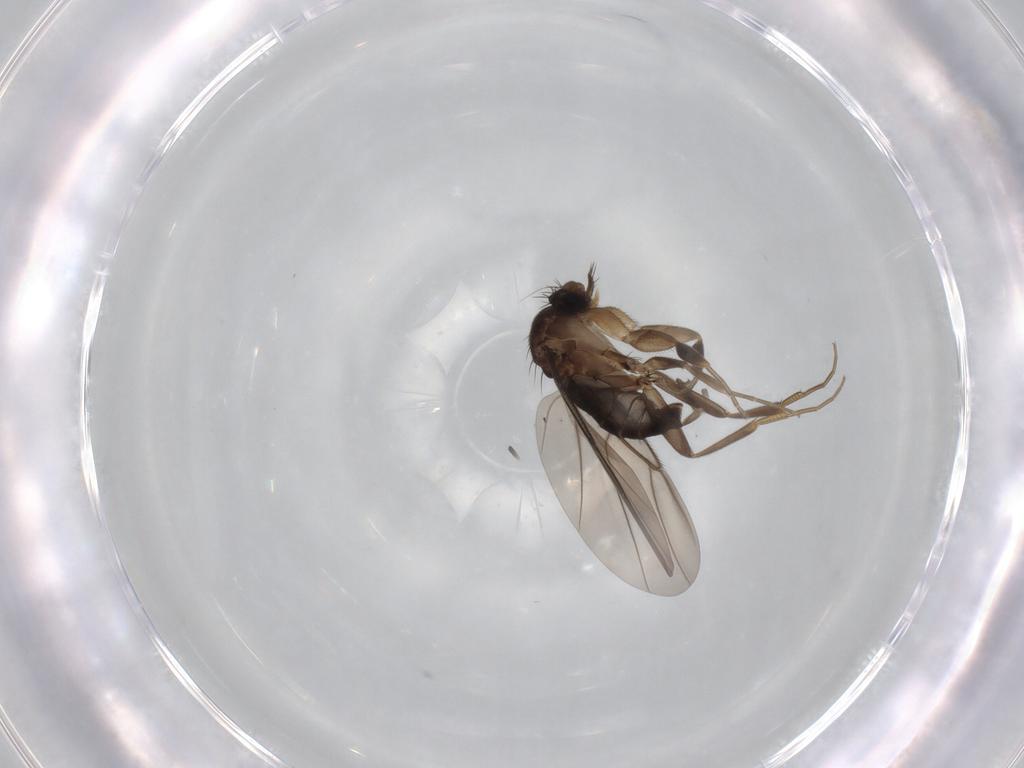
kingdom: Animalia
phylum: Arthropoda
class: Insecta
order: Diptera
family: Phoridae
